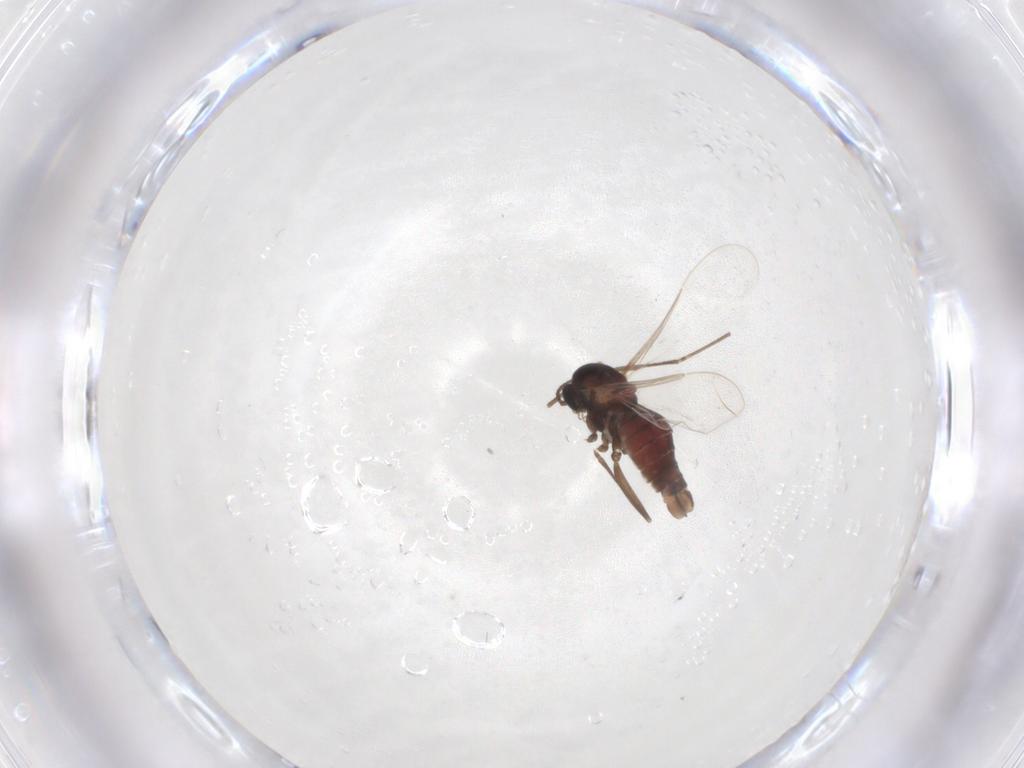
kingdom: Animalia
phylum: Arthropoda
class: Insecta
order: Diptera
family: Cecidomyiidae
